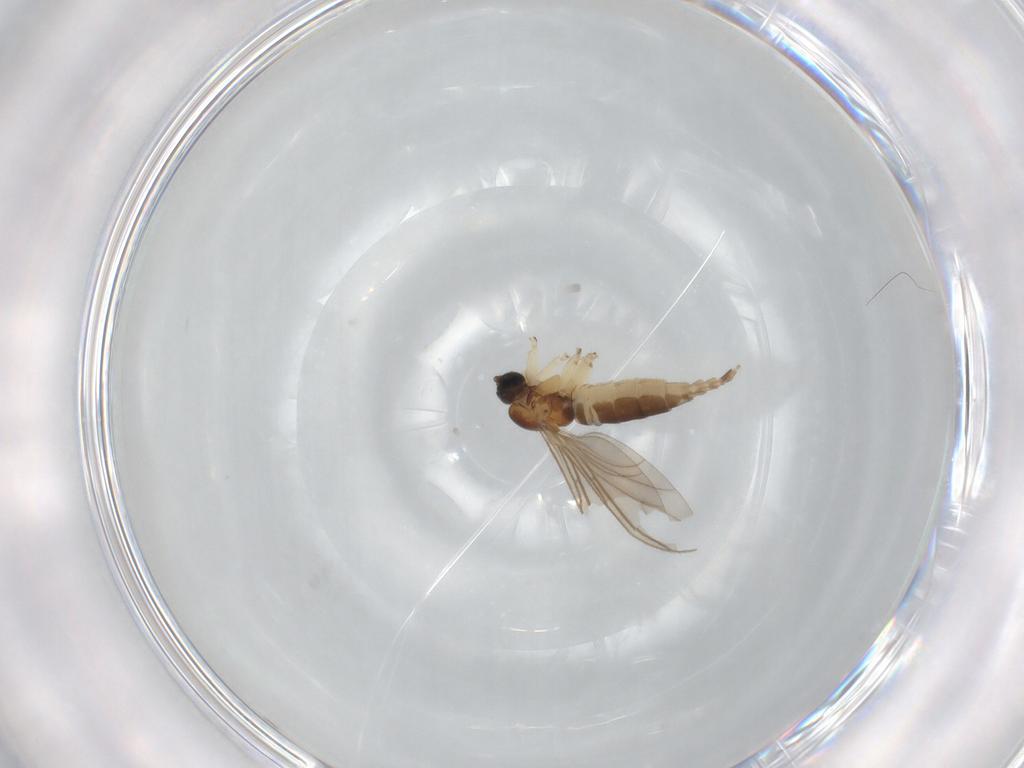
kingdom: Animalia
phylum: Arthropoda
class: Insecta
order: Diptera
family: Sciaridae
